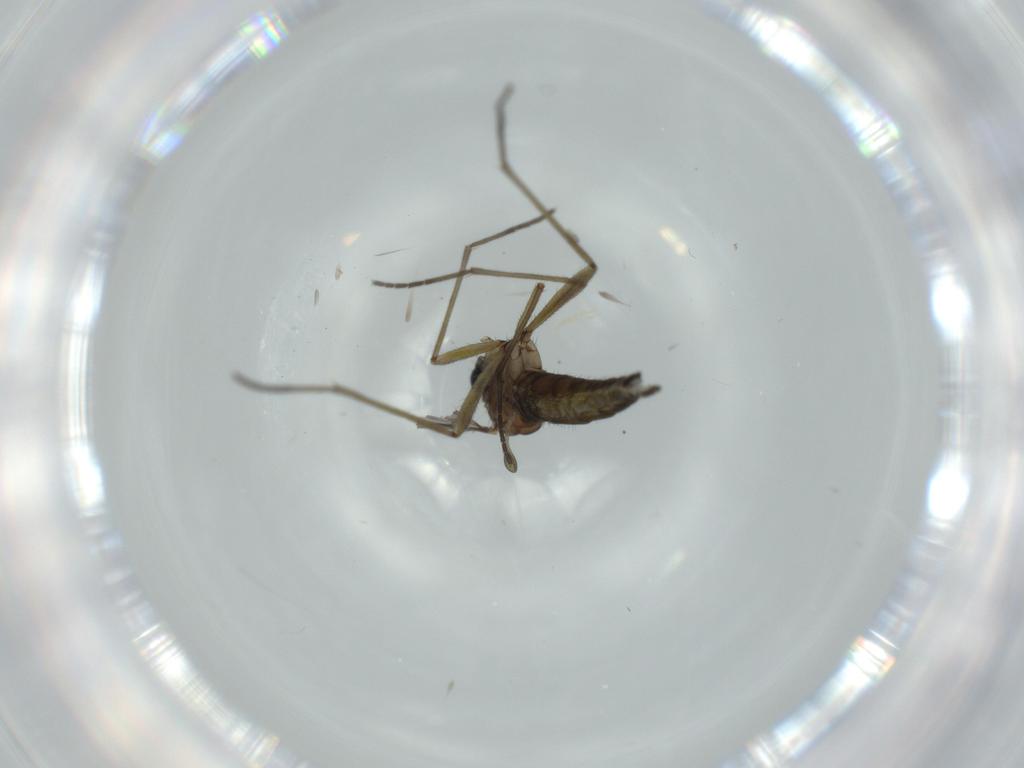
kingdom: Animalia
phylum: Arthropoda
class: Insecta
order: Diptera
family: Sciaridae
